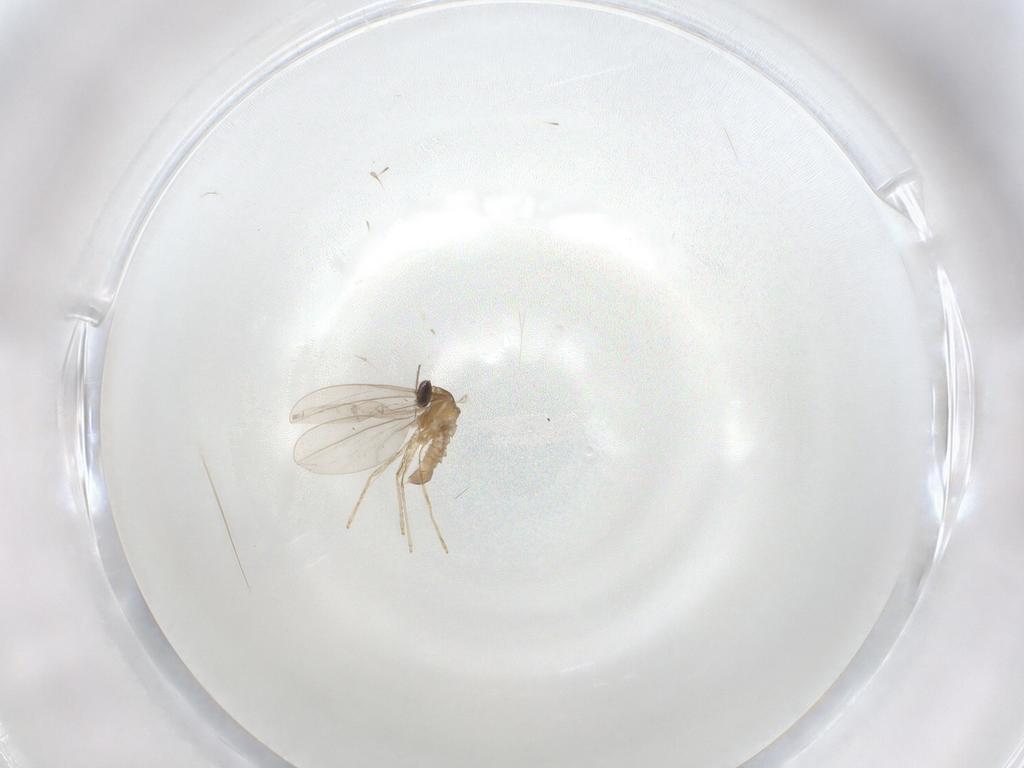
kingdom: Animalia
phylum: Arthropoda
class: Insecta
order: Diptera
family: Cecidomyiidae
